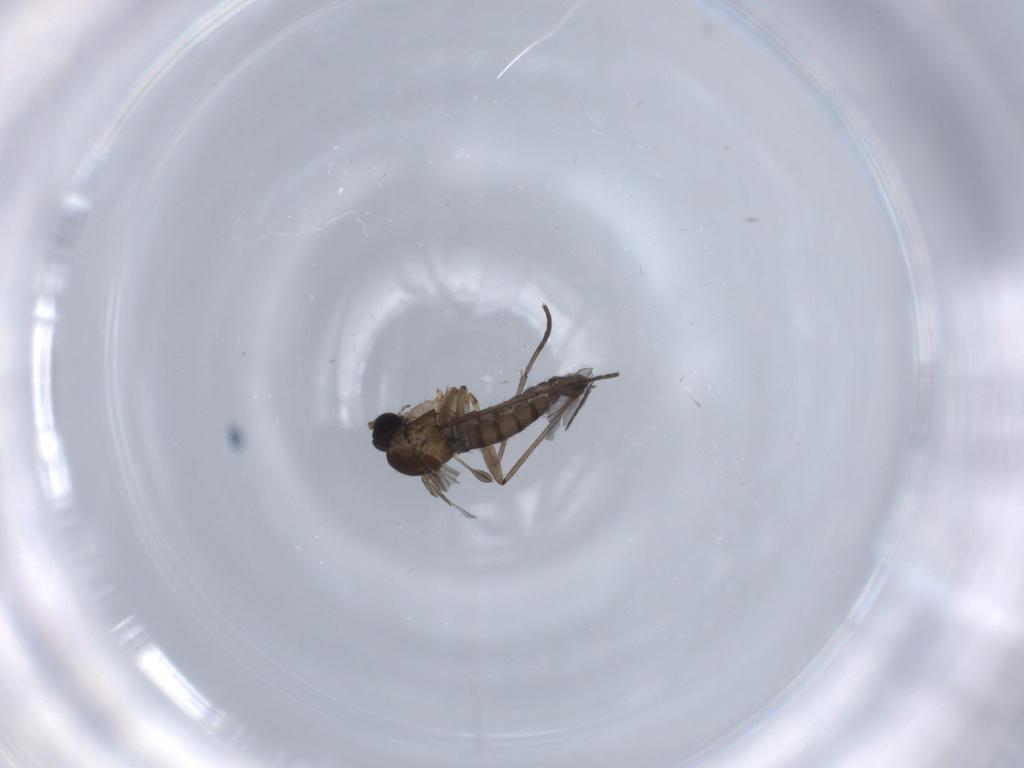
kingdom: Animalia
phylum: Arthropoda
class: Insecta
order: Diptera
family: Sciaridae
